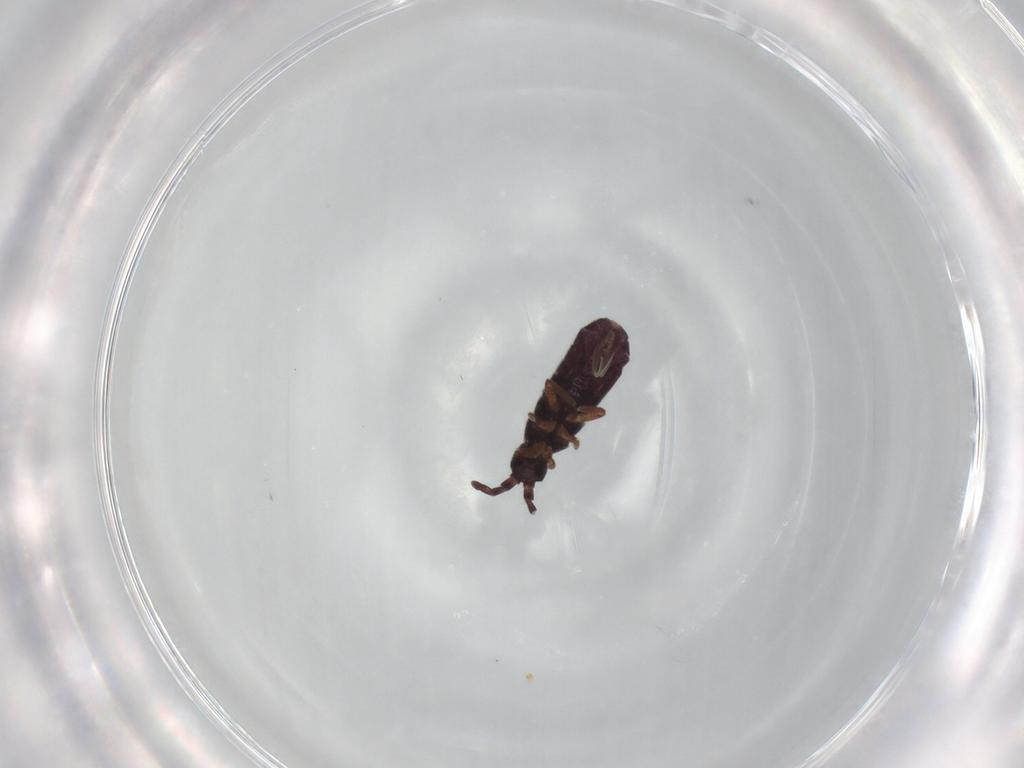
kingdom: Animalia
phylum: Arthropoda
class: Collembola
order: Entomobryomorpha
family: Isotomidae
